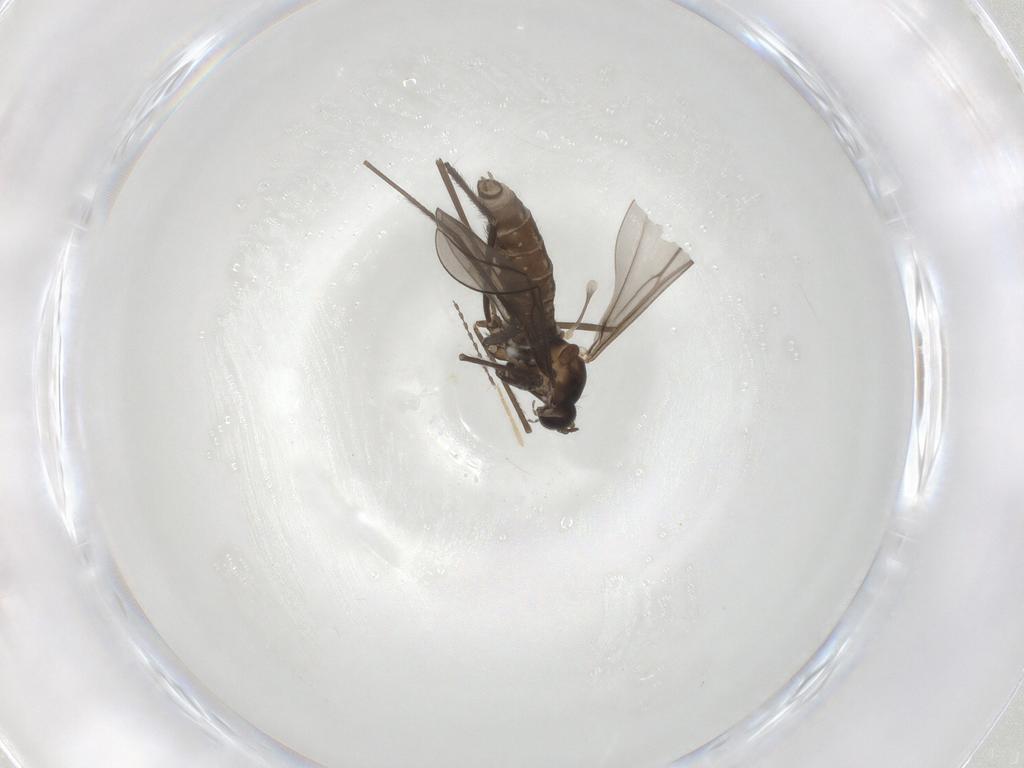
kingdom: Animalia
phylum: Arthropoda
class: Insecta
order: Diptera
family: Cecidomyiidae
